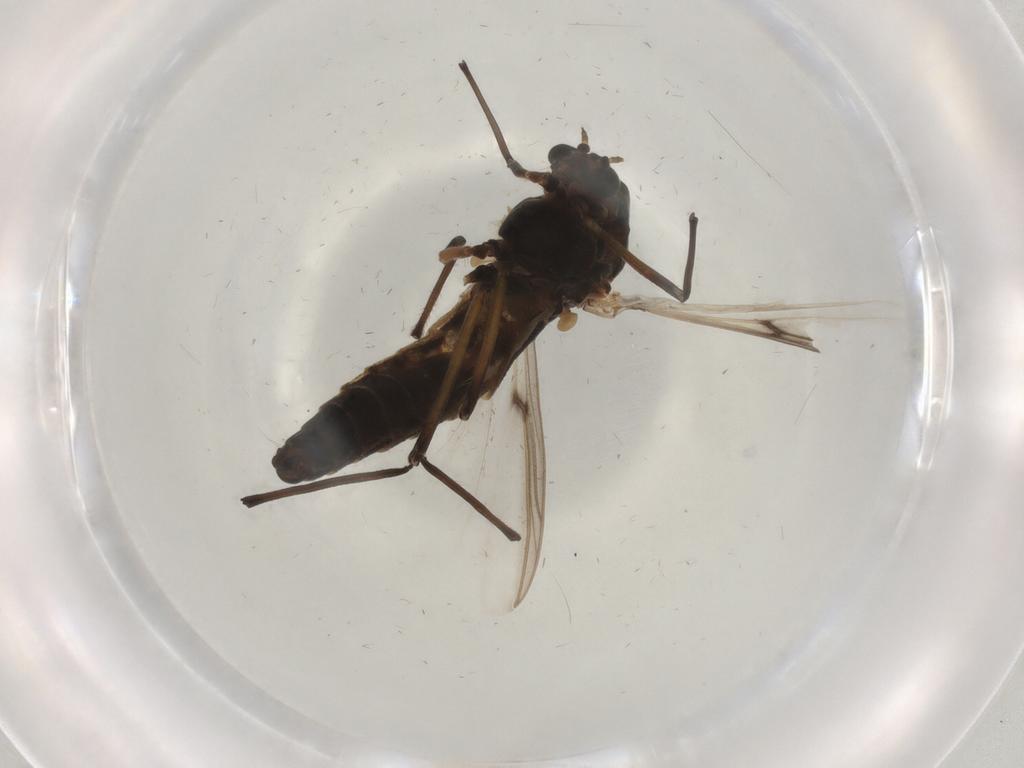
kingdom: Animalia
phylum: Arthropoda
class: Insecta
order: Diptera
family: Chironomidae
